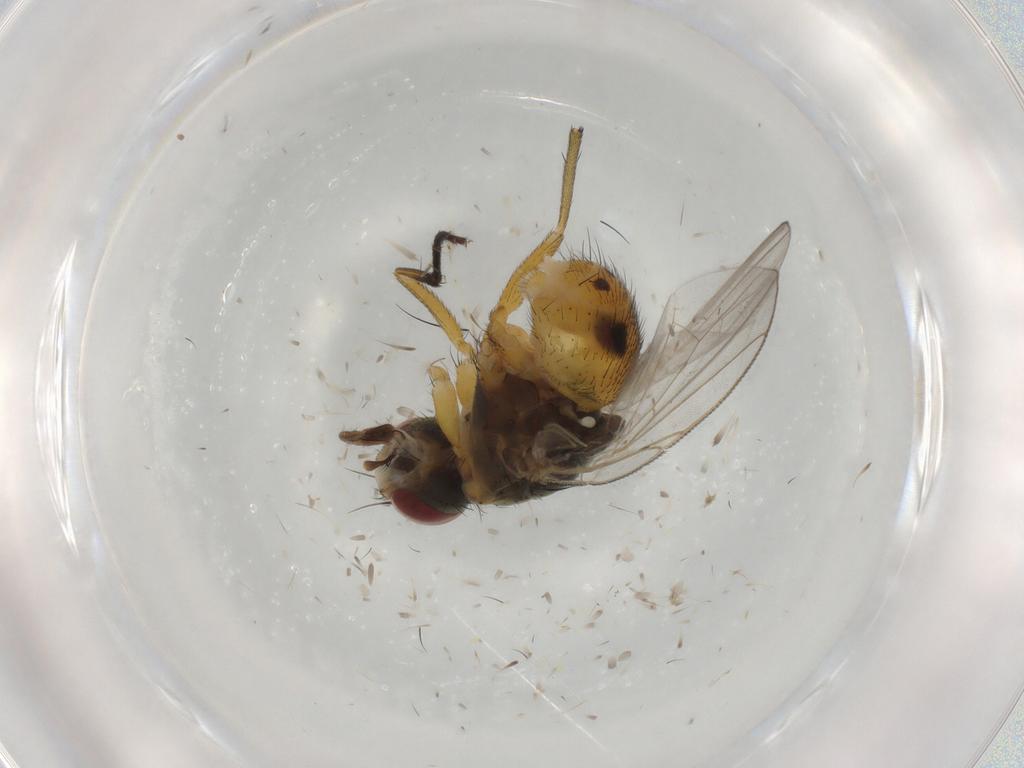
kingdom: Animalia
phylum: Arthropoda
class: Insecta
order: Diptera
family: Muscidae
